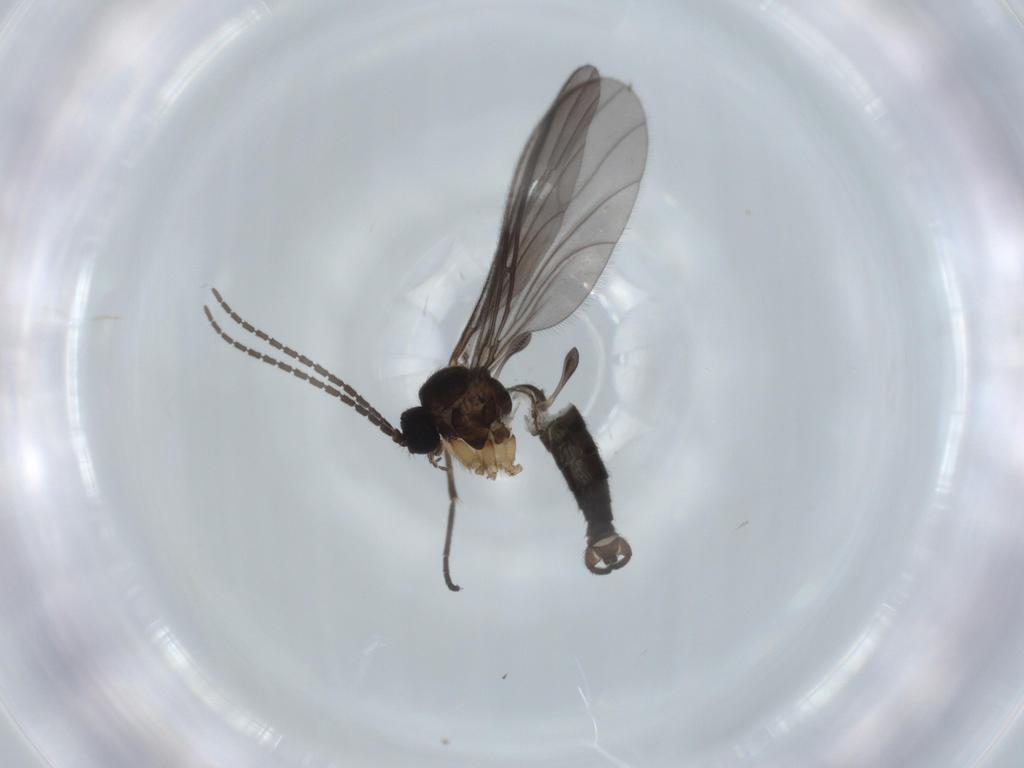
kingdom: Animalia
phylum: Arthropoda
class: Insecta
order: Diptera
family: Sciaridae
